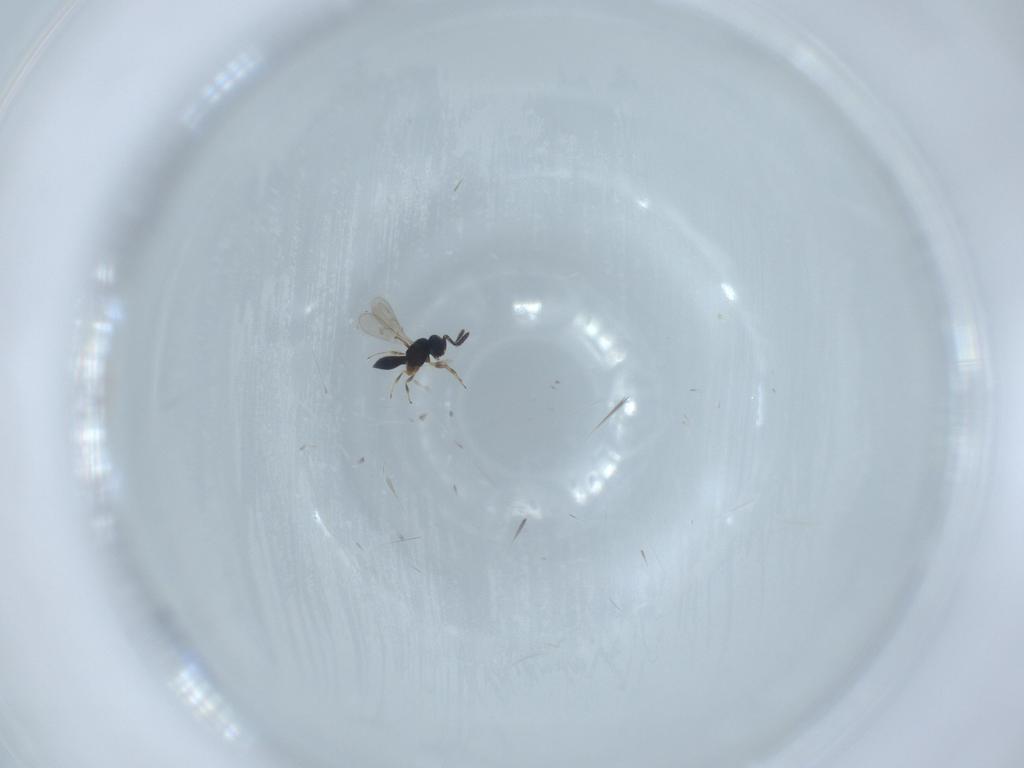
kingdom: Animalia
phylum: Arthropoda
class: Insecta
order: Hymenoptera
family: Scelionidae
